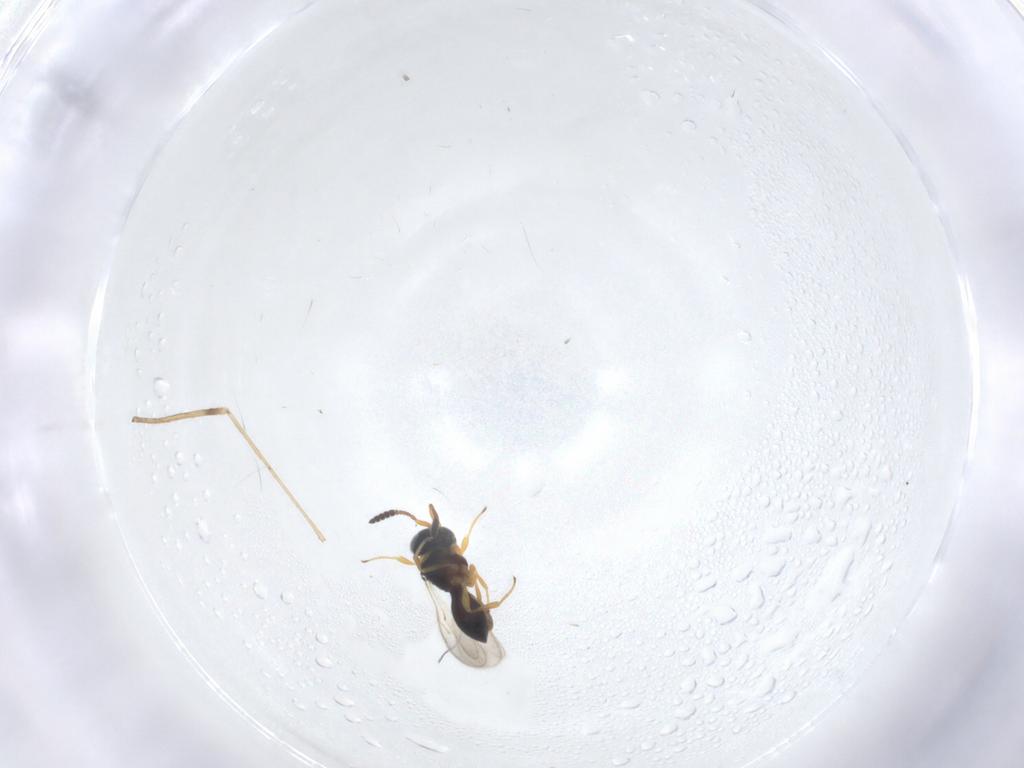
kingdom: Animalia
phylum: Arthropoda
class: Insecta
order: Hymenoptera
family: Scelionidae
